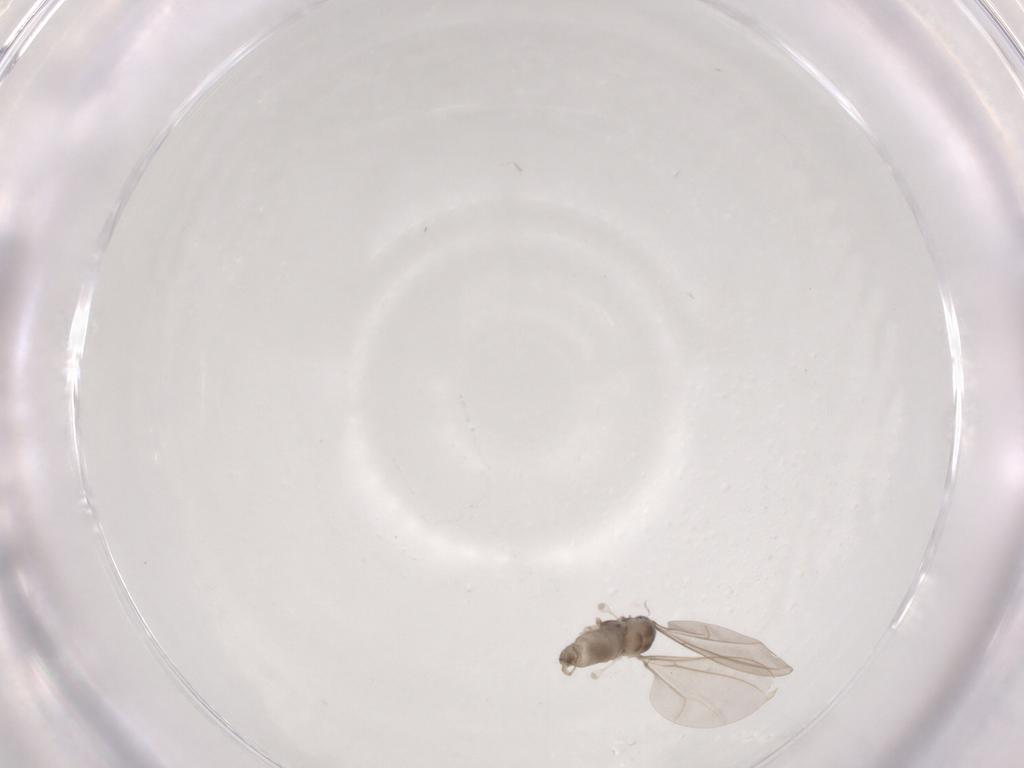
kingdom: Animalia
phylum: Arthropoda
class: Insecta
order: Diptera
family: Cecidomyiidae
